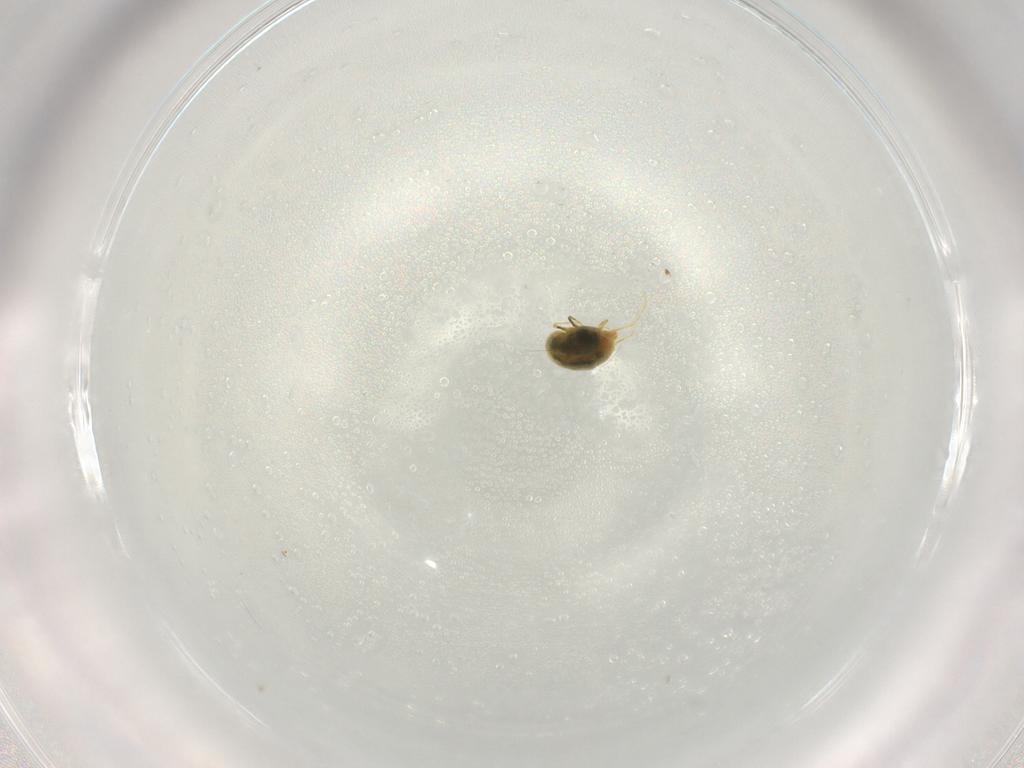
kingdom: Animalia
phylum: Arthropoda
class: Arachnida
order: Trombidiformes
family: Tetranychidae
